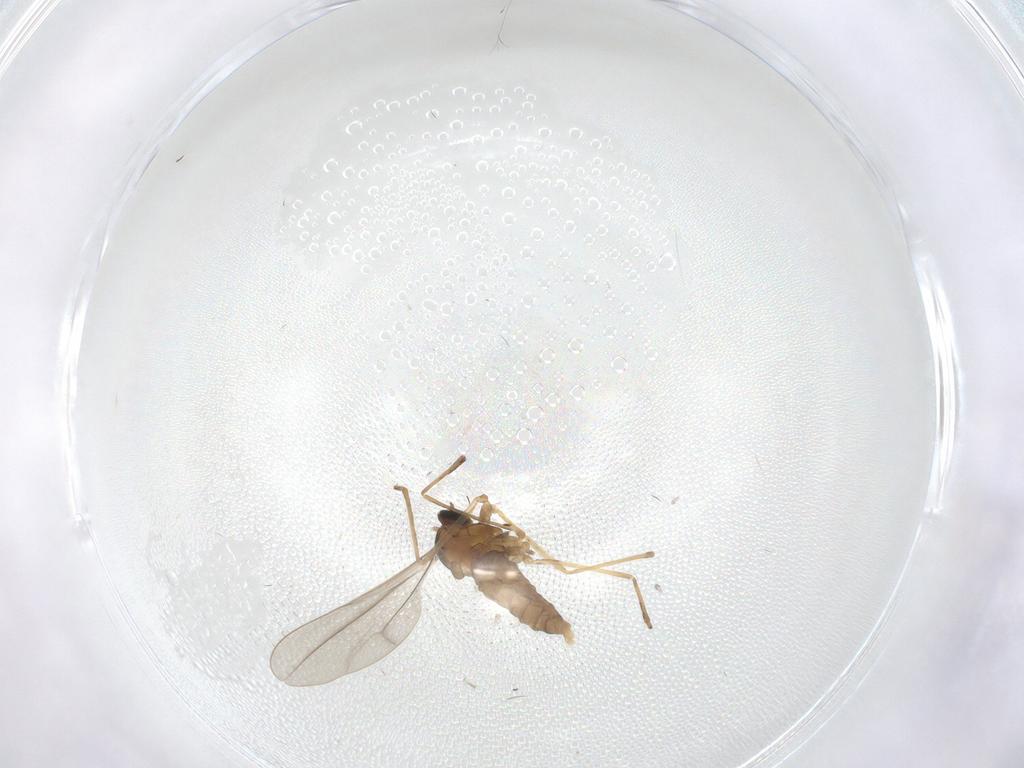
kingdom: Animalia
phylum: Arthropoda
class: Insecta
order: Diptera
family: Cecidomyiidae
